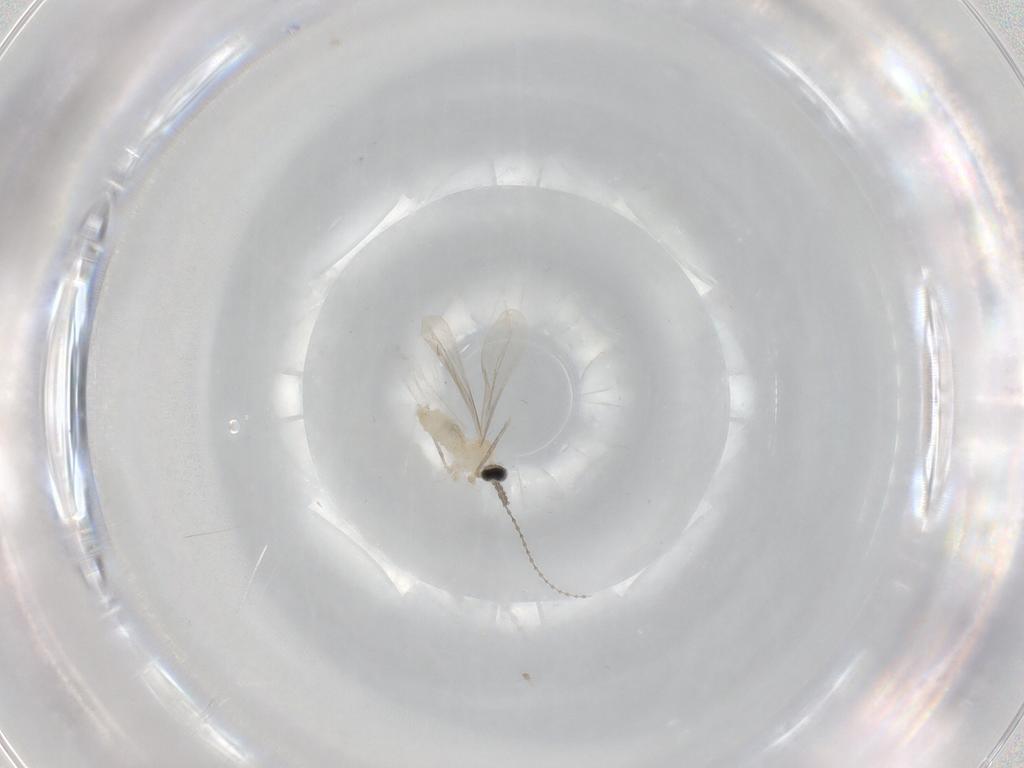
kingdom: Animalia
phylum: Arthropoda
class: Insecta
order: Diptera
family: Cecidomyiidae
